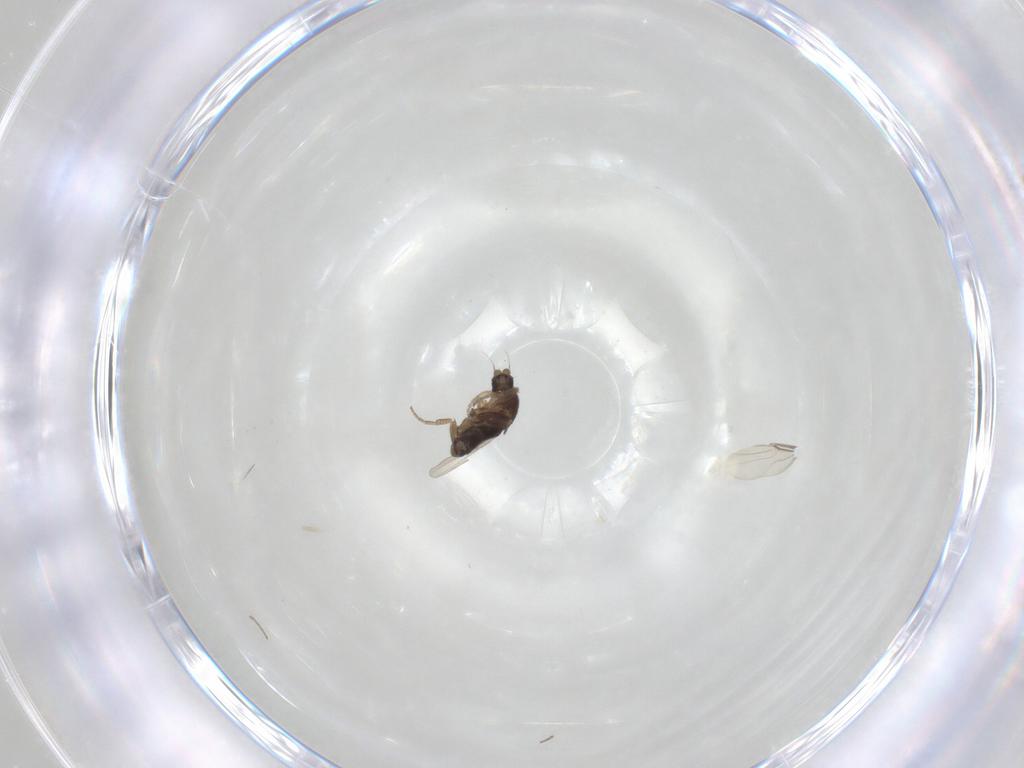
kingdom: Animalia
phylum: Arthropoda
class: Insecta
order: Diptera
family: Phoridae
